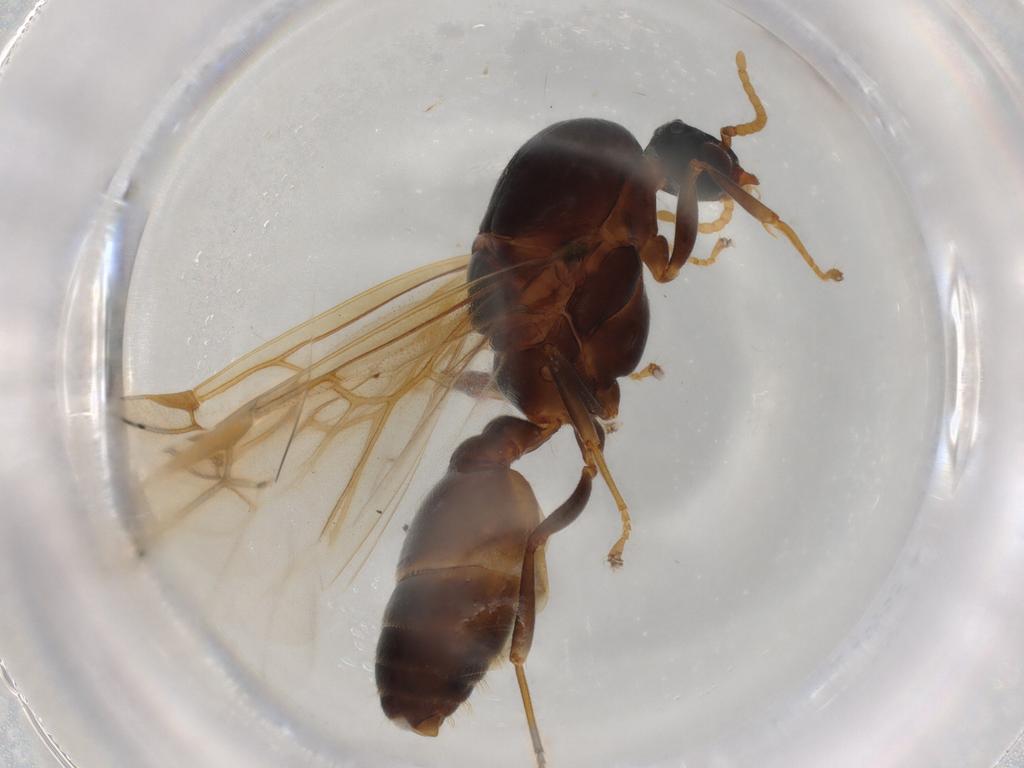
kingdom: Animalia
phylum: Arthropoda
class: Insecta
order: Hymenoptera
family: Formicidae
